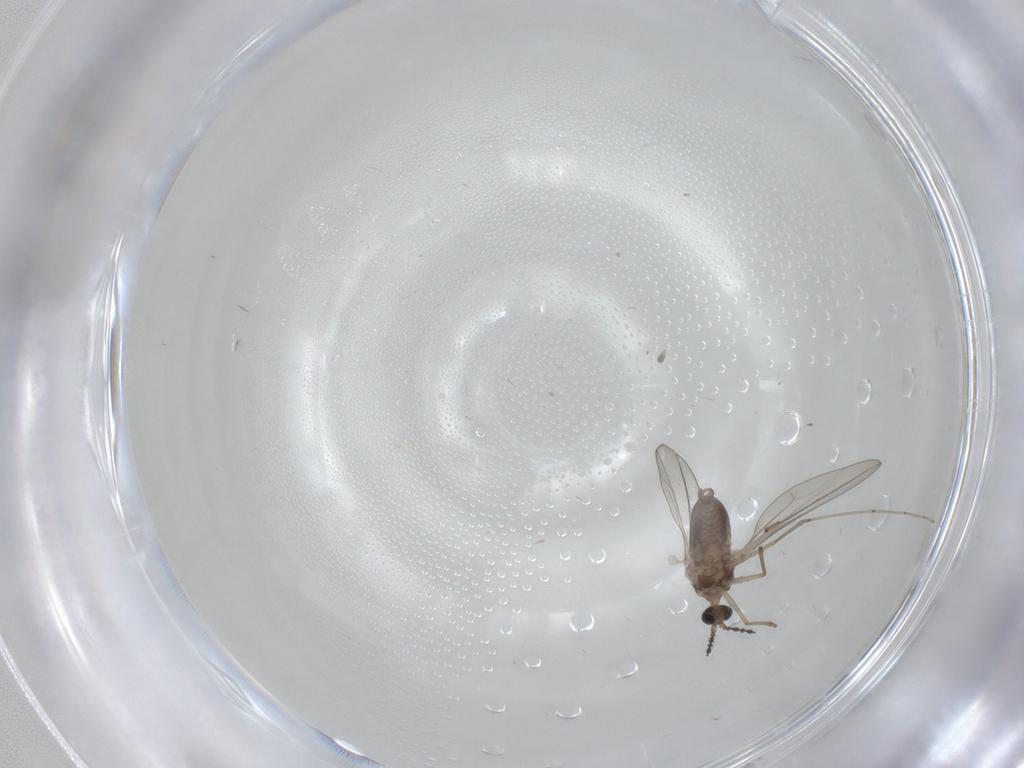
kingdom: Animalia
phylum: Arthropoda
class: Insecta
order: Diptera
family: Cecidomyiidae
